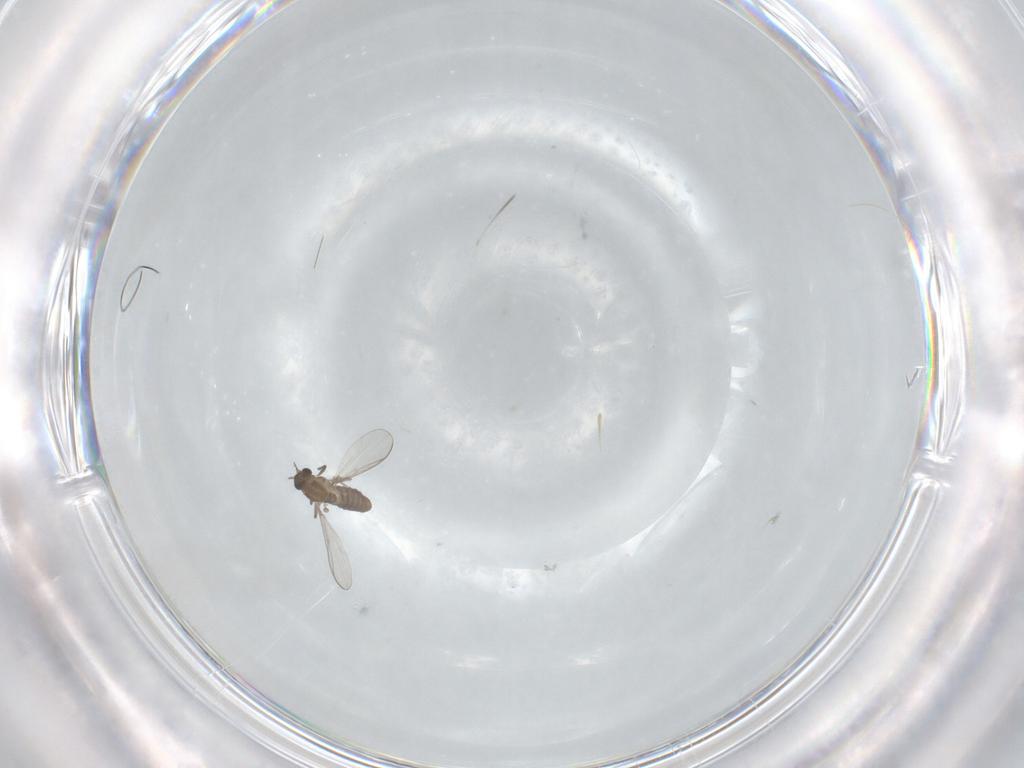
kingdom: Animalia
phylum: Arthropoda
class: Insecta
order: Diptera
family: Chironomidae
